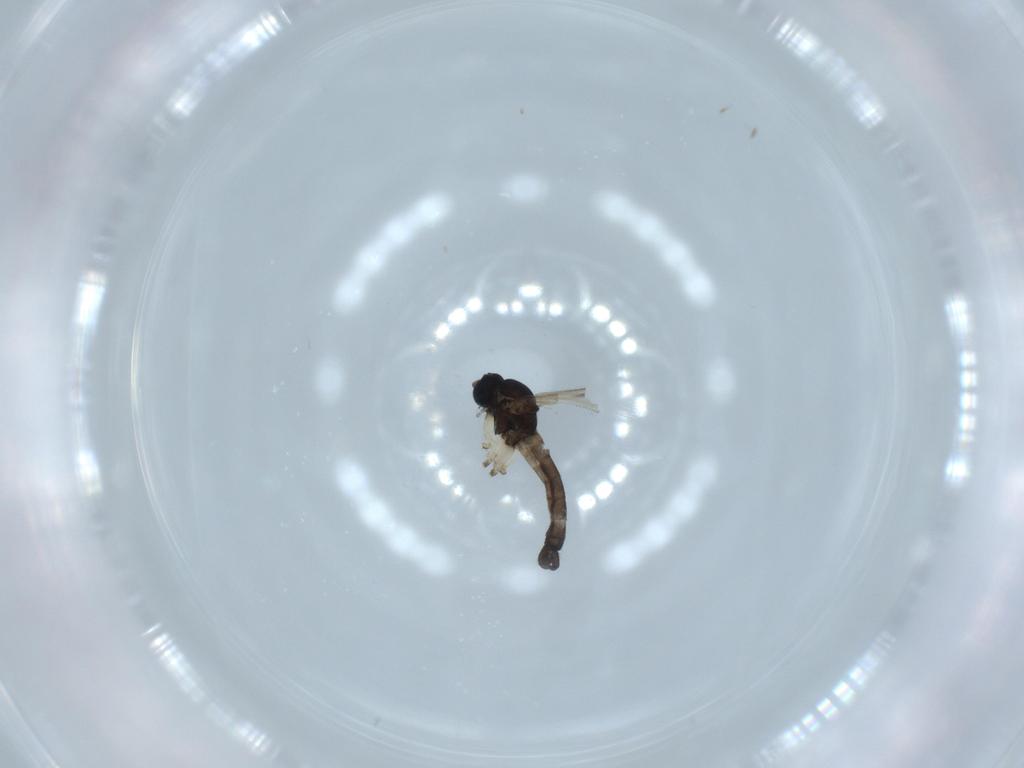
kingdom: Animalia
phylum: Arthropoda
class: Insecta
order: Diptera
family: Sciaridae
